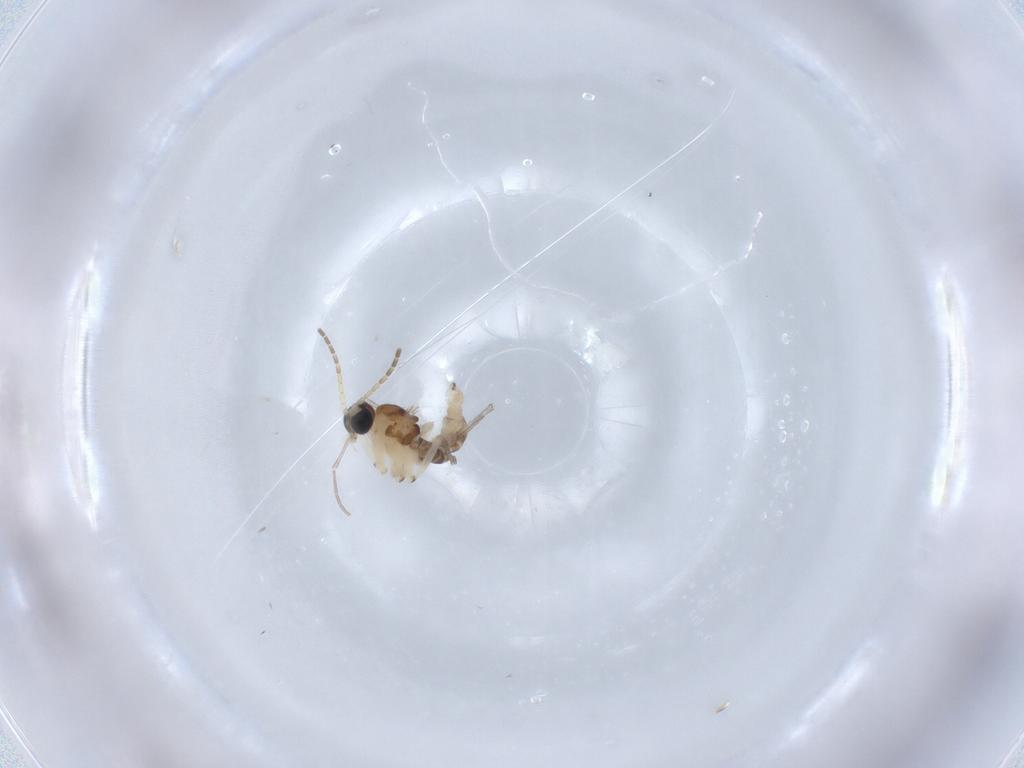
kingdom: Animalia
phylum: Arthropoda
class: Insecta
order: Diptera
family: Sciaridae
